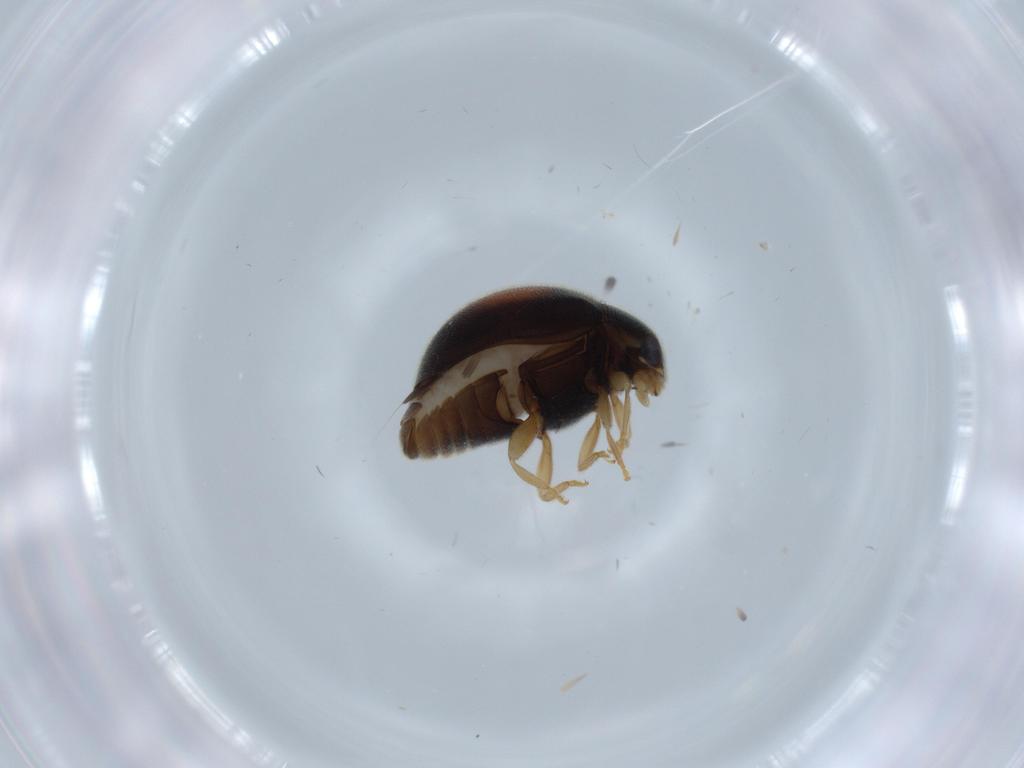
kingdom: Animalia
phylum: Arthropoda
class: Insecta
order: Coleoptera
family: Coccinellidae
